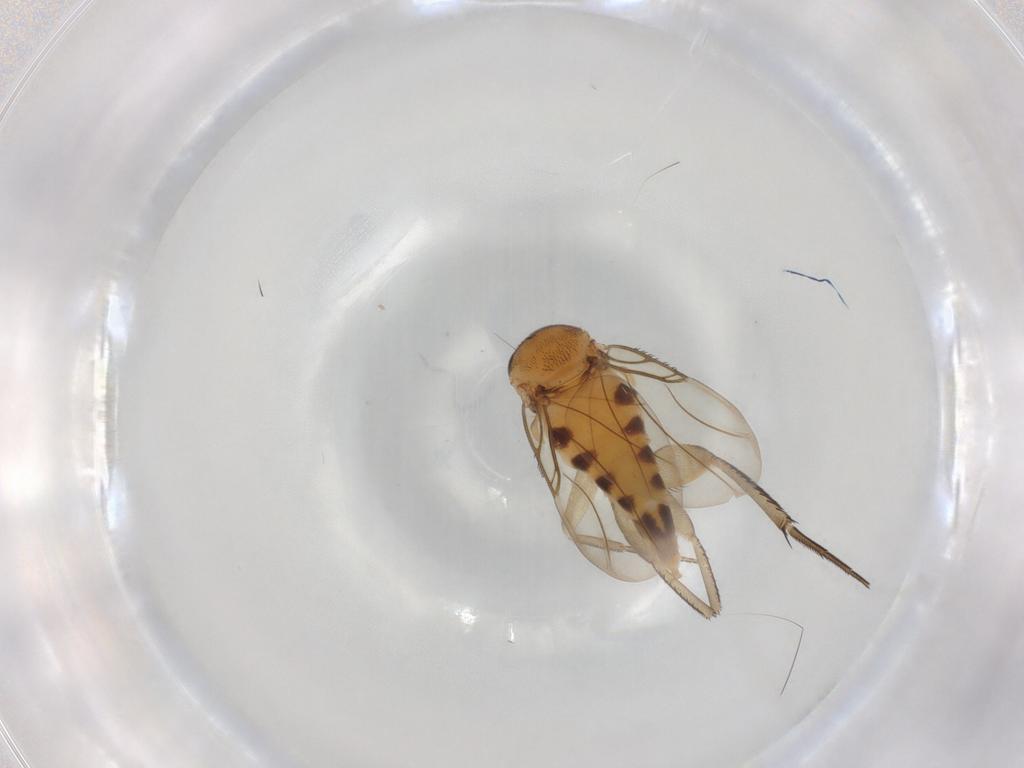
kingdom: Animalia
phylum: Arthropoda
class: Insecta
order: Diptera
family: Phoridae
